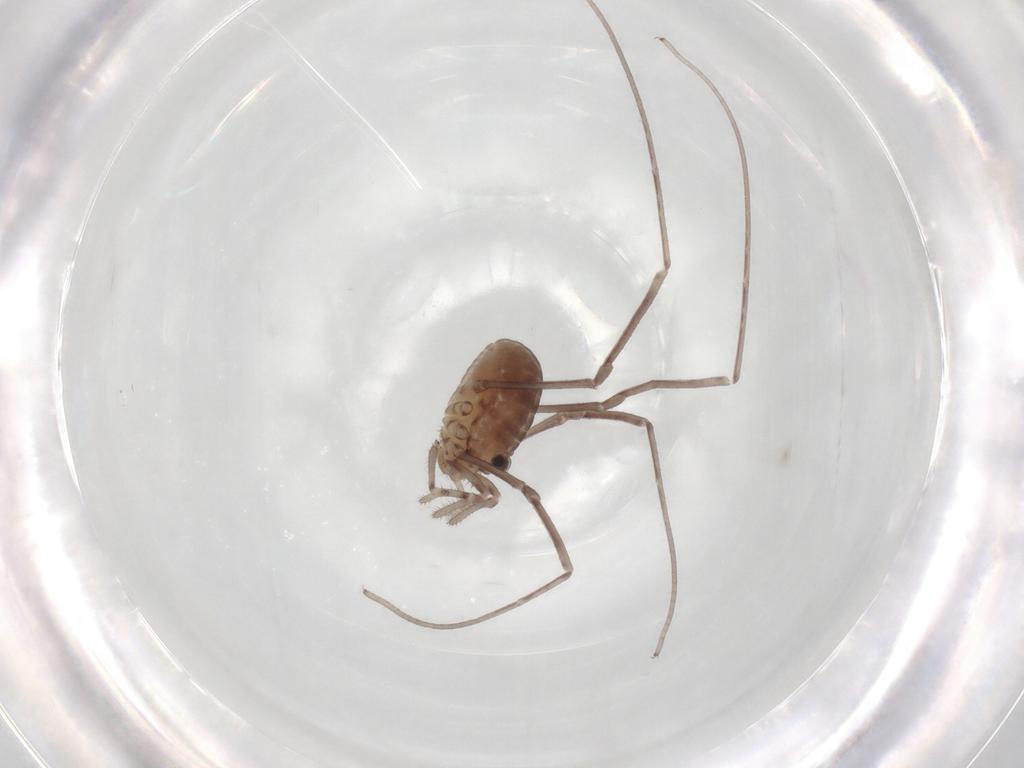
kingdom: Animalia
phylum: Arthropoda
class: Arachnida
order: Opiliones
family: Sclerosomatidae
